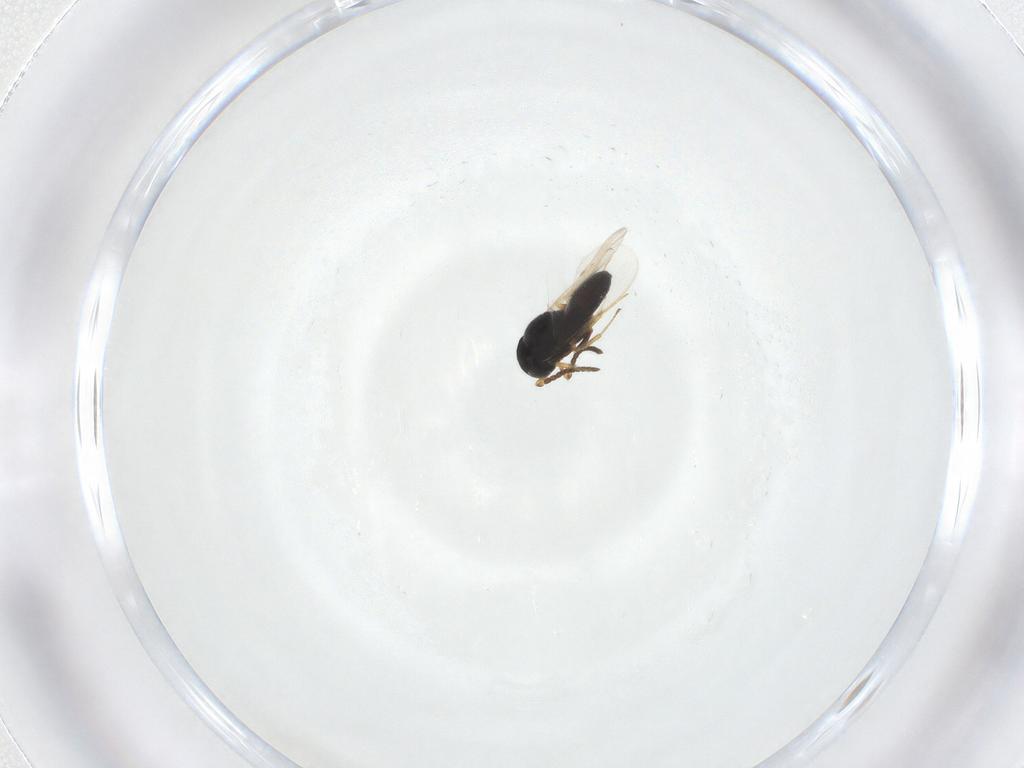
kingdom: Animalia
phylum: Arthropoda
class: Insecta
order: Hymenoptera
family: Scelionidae
